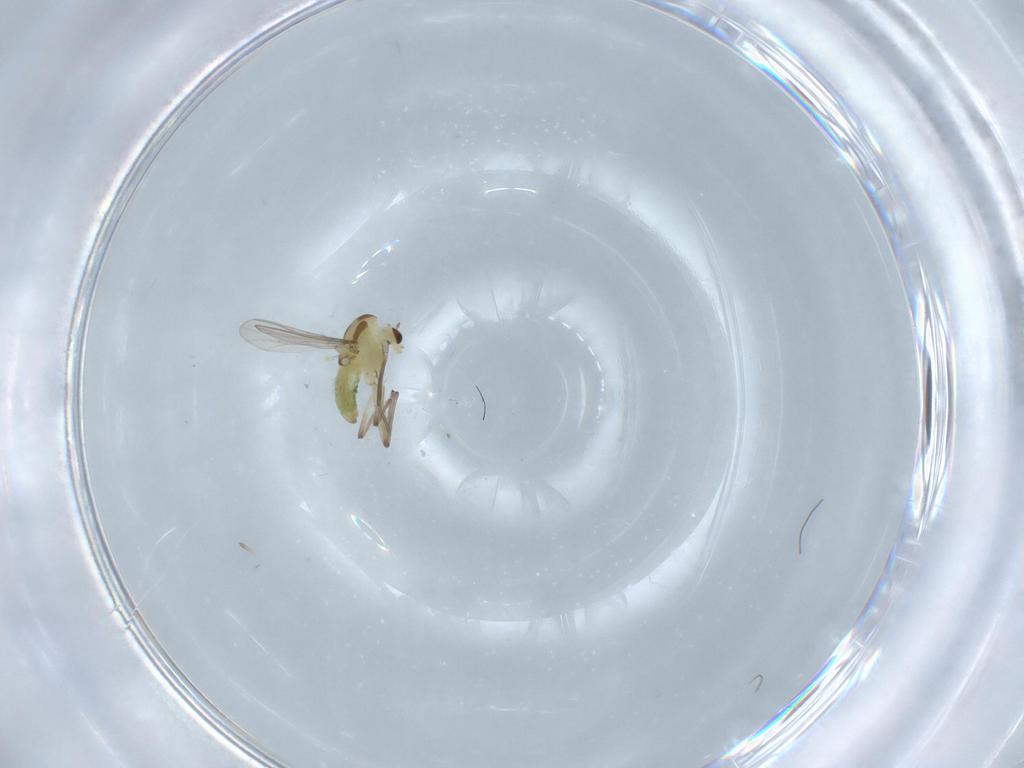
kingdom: Animalia
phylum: Arthropoda
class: Insecta
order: Diptera
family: Chironomidae
